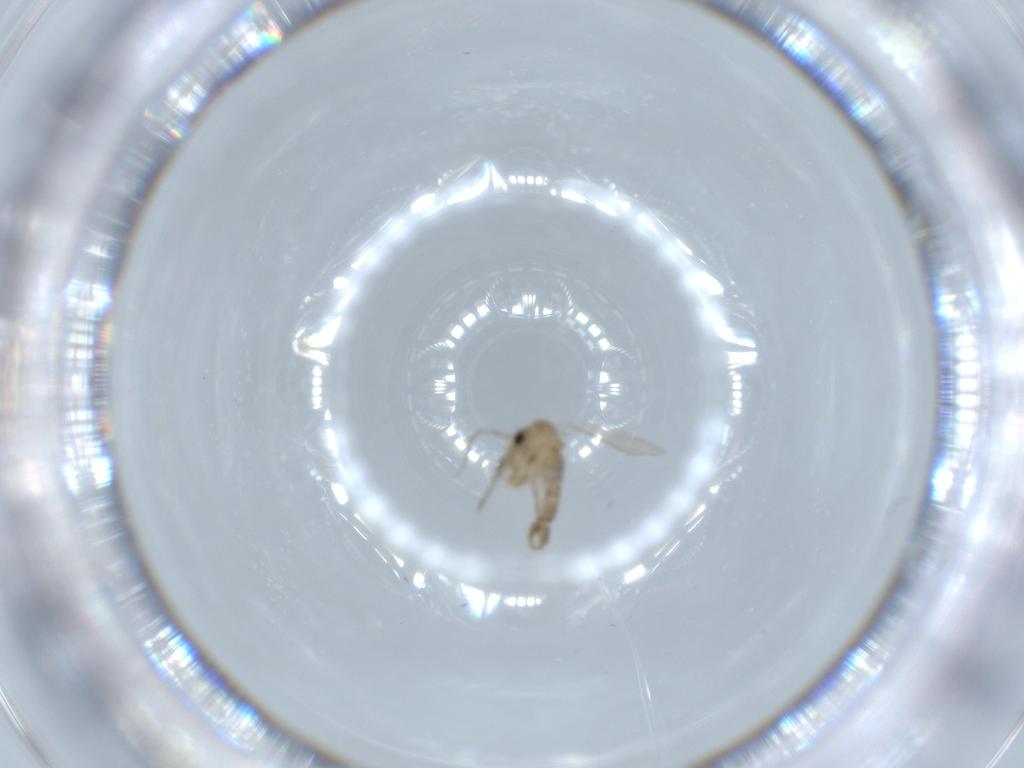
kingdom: Animalia
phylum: Arthropoda
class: Insecta
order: Diptera
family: Psychodidae
